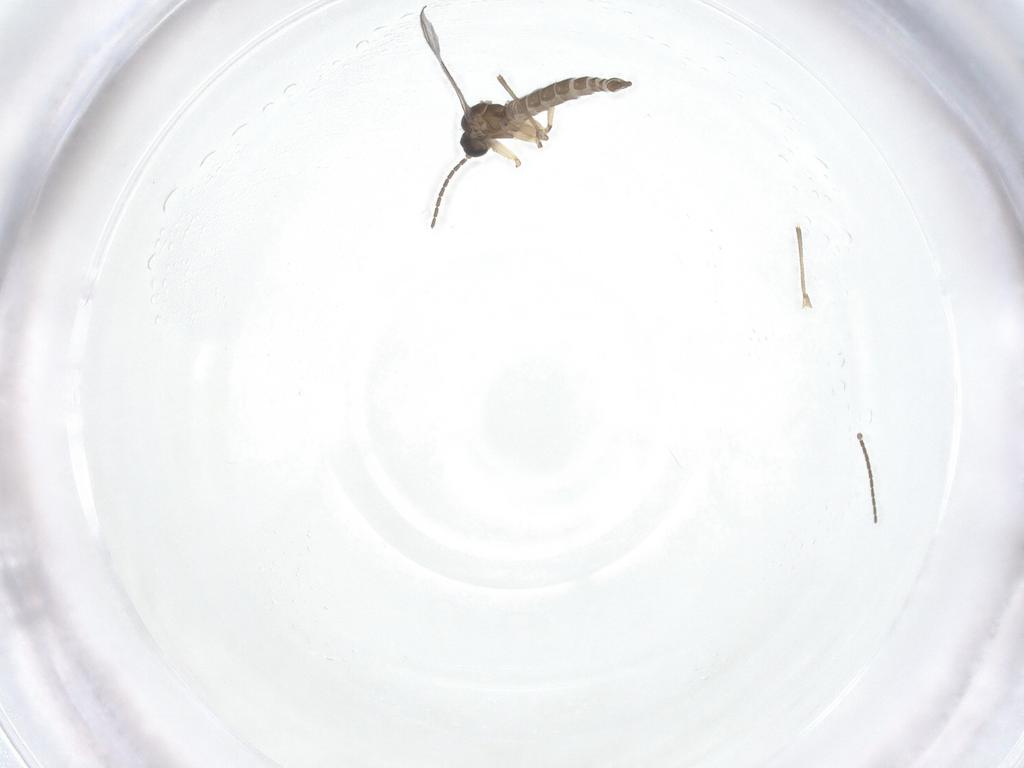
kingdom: Animalia
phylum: Arthropoda
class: Insecta
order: Diptera
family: Sciaridae
